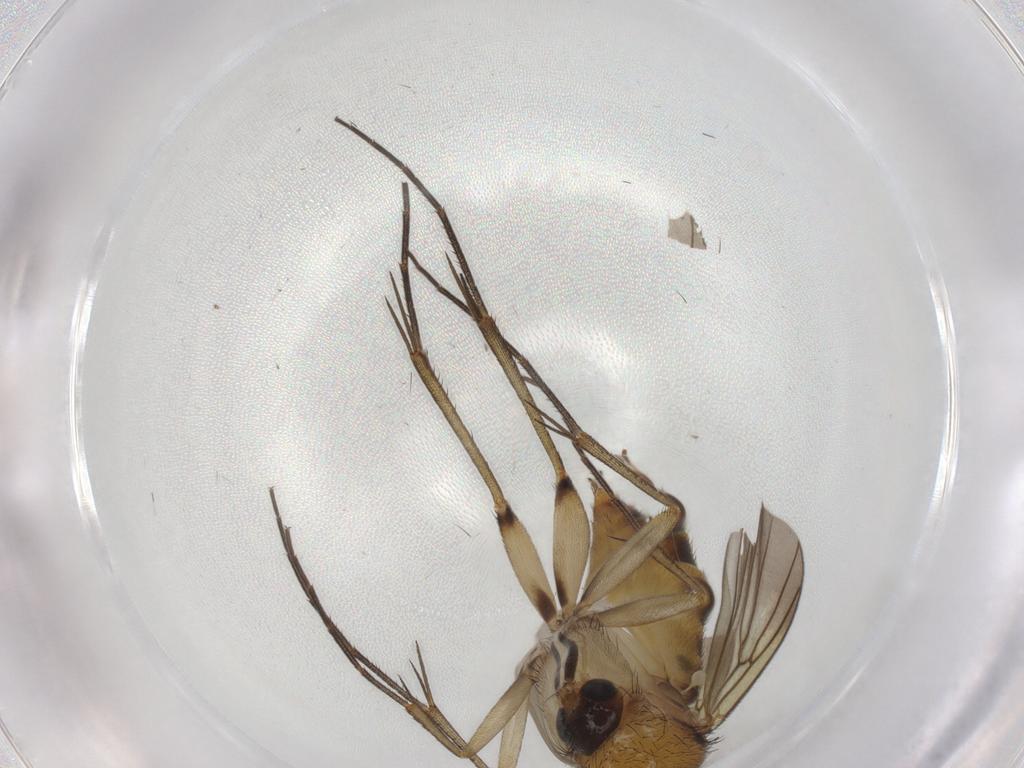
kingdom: Animalia
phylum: Arthropoda
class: Insecta
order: Diptera
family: Mycetophilidae
